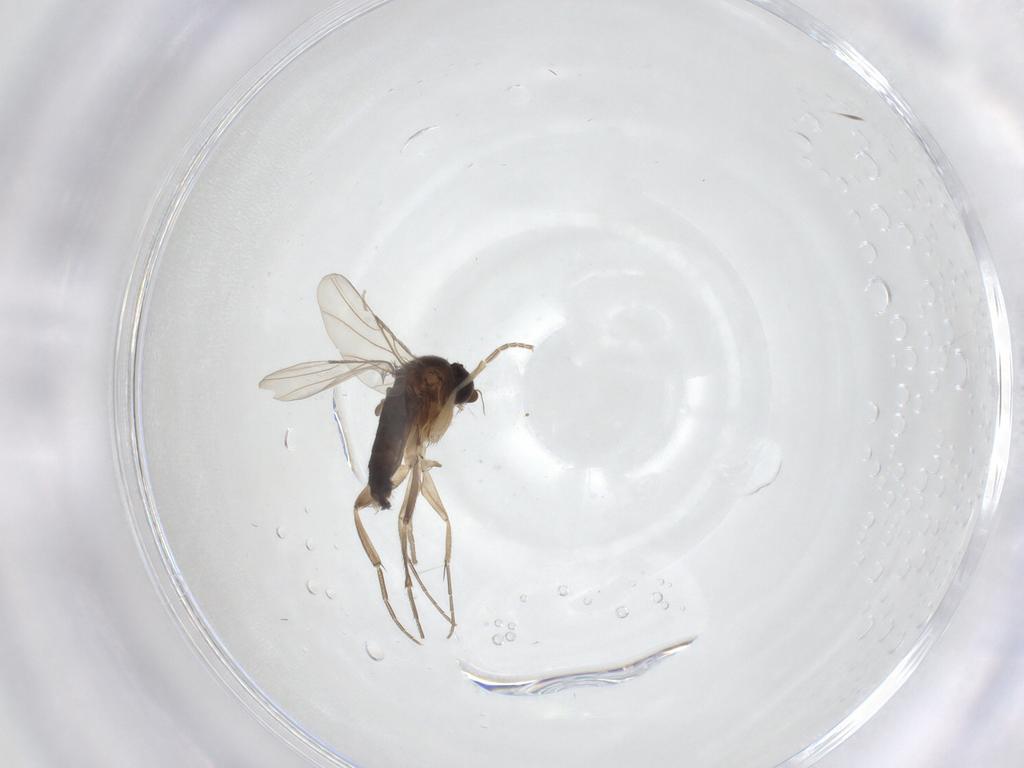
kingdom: Animalia
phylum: Arthropoda
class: Insecta
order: Diptera
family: Phoridae
